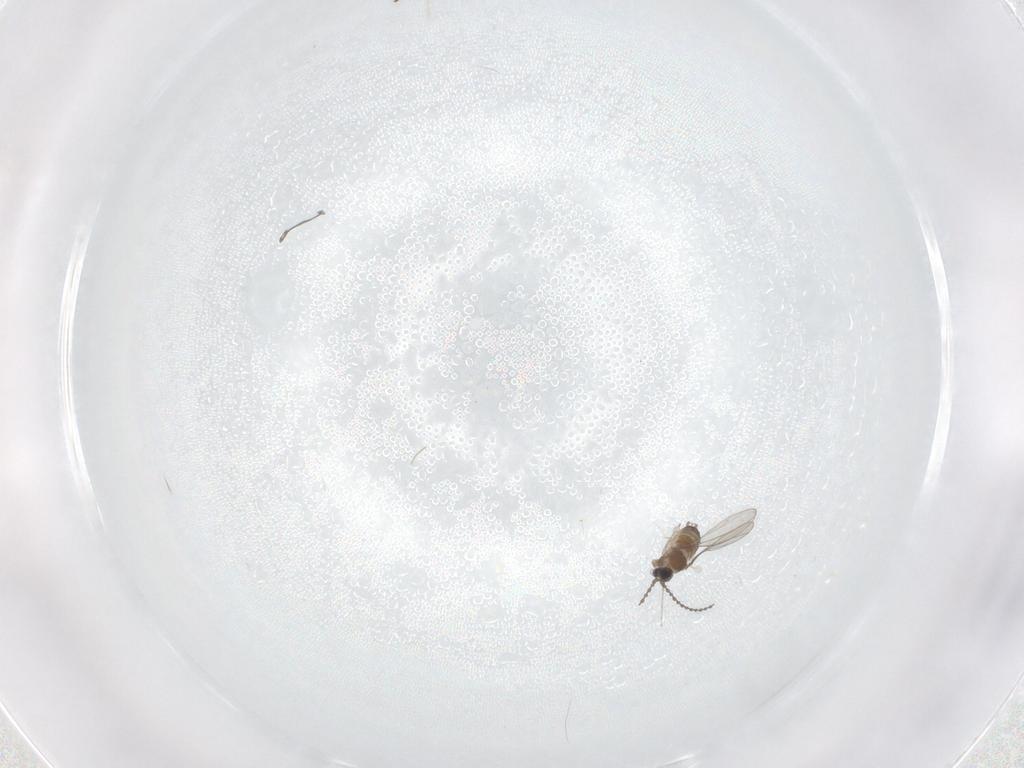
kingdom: Animalia
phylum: Arthropoda
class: Insecta
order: Diptera
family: Cecidomyiidae
